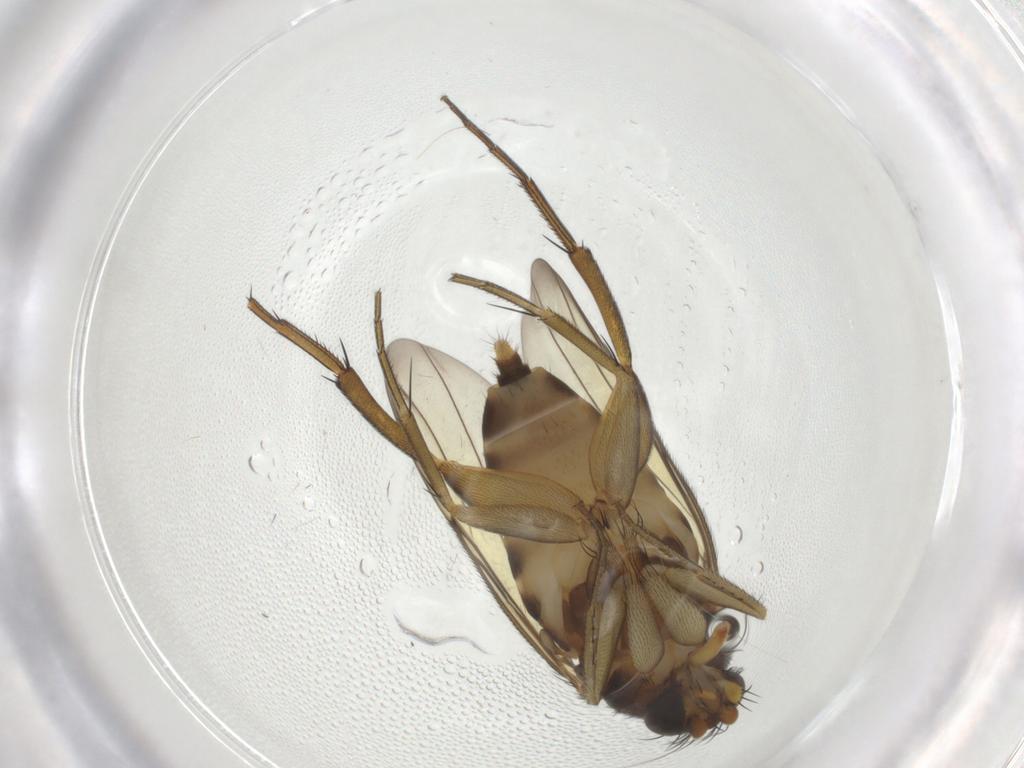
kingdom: Animalia
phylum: Arthropoda
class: Insecta
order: Diptera
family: Phoridae
